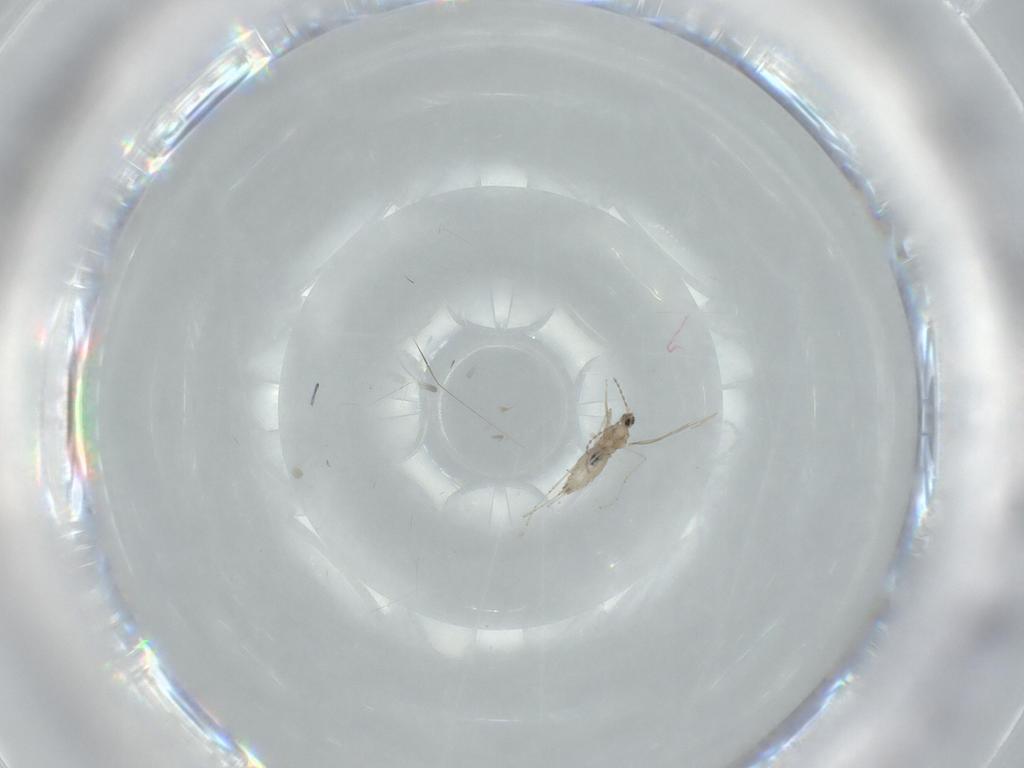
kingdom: Animalia
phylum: Arthropoda
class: Insecta
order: Diptera
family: Cecidomyiidae
